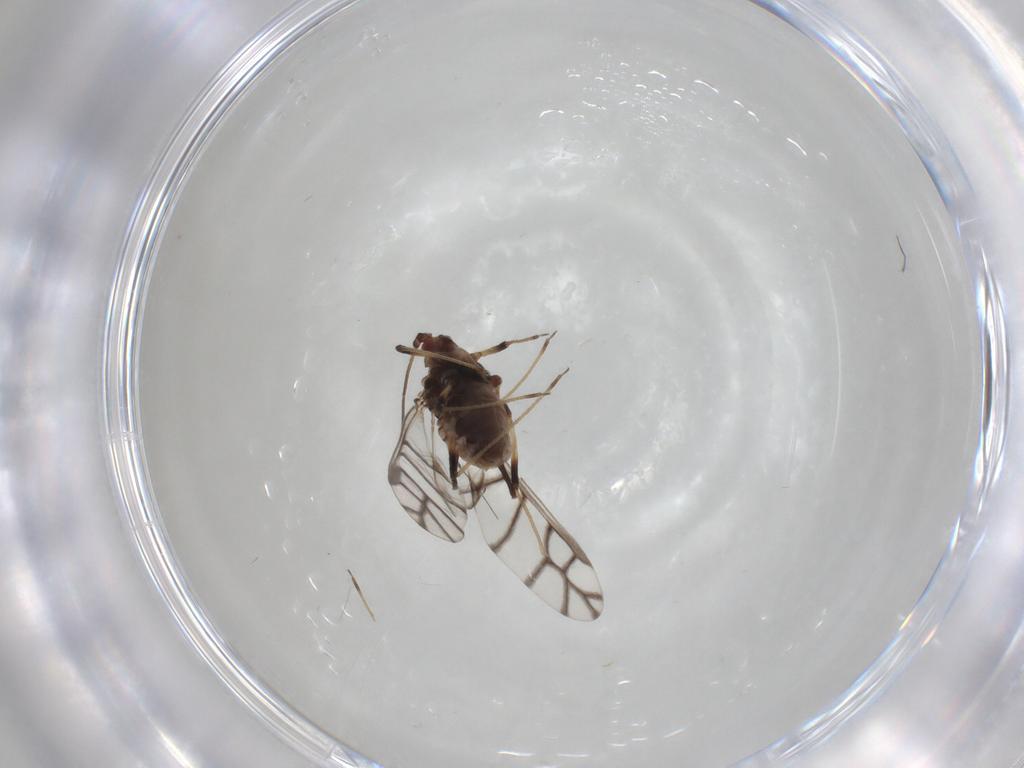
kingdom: Animalia
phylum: Arthropoda
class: Insecta
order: Hemiptera
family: Aphididae
